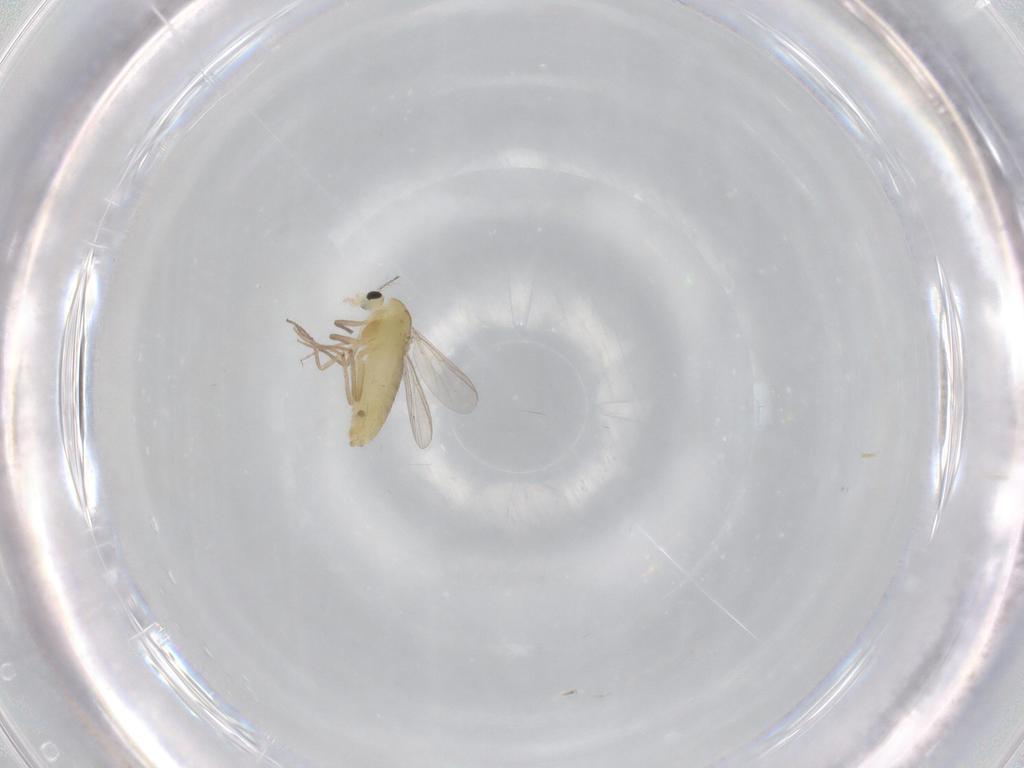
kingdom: Animalia
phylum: Arthropoda
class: Insecta
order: Diptera
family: Chironomidae
